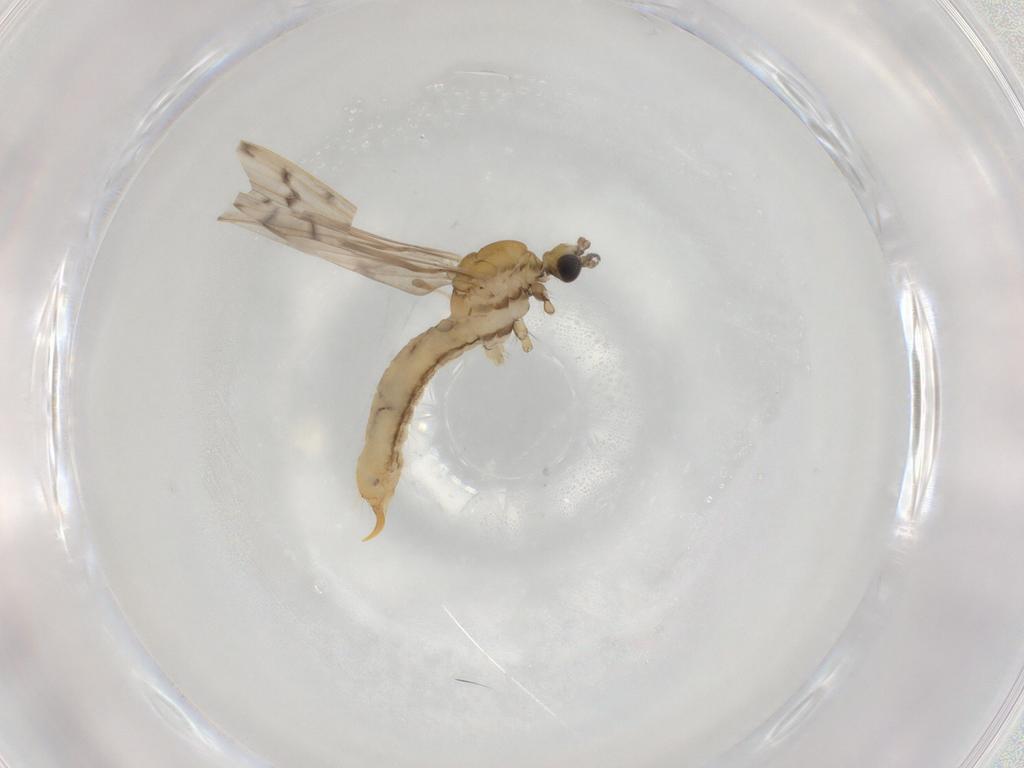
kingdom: Animalia
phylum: Arthropoda
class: Insecta
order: Diptera
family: Limoniidae
